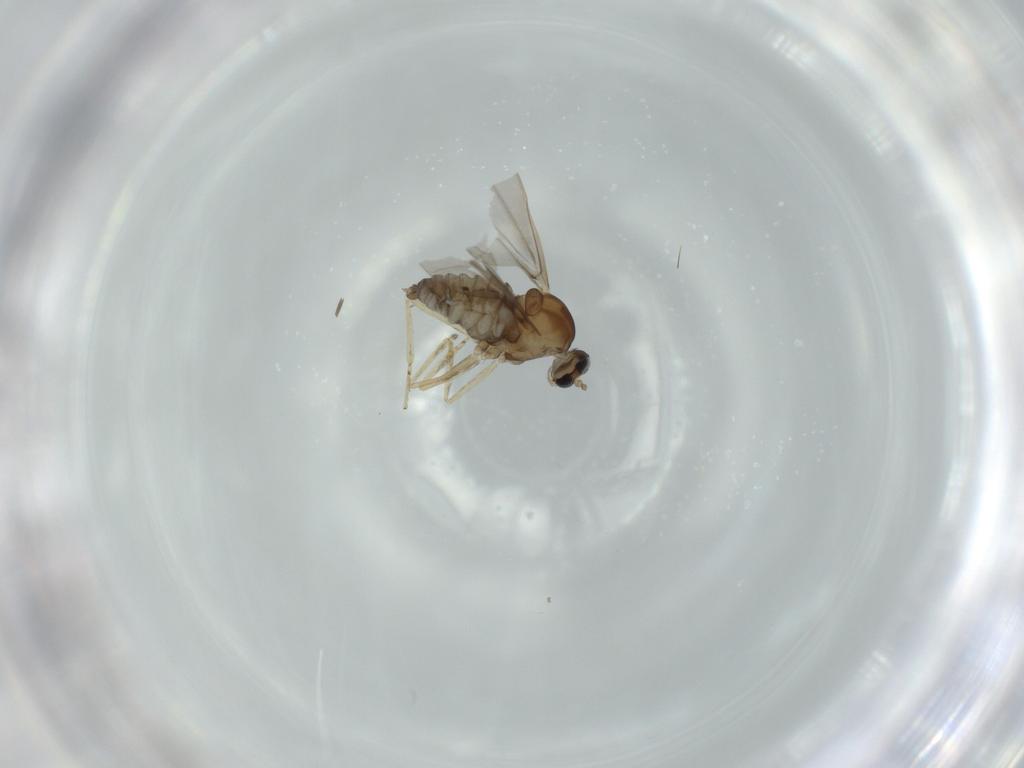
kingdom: Animalia
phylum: Arthropoda
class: Insecta
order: Diptera
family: Cecidomyiidae
